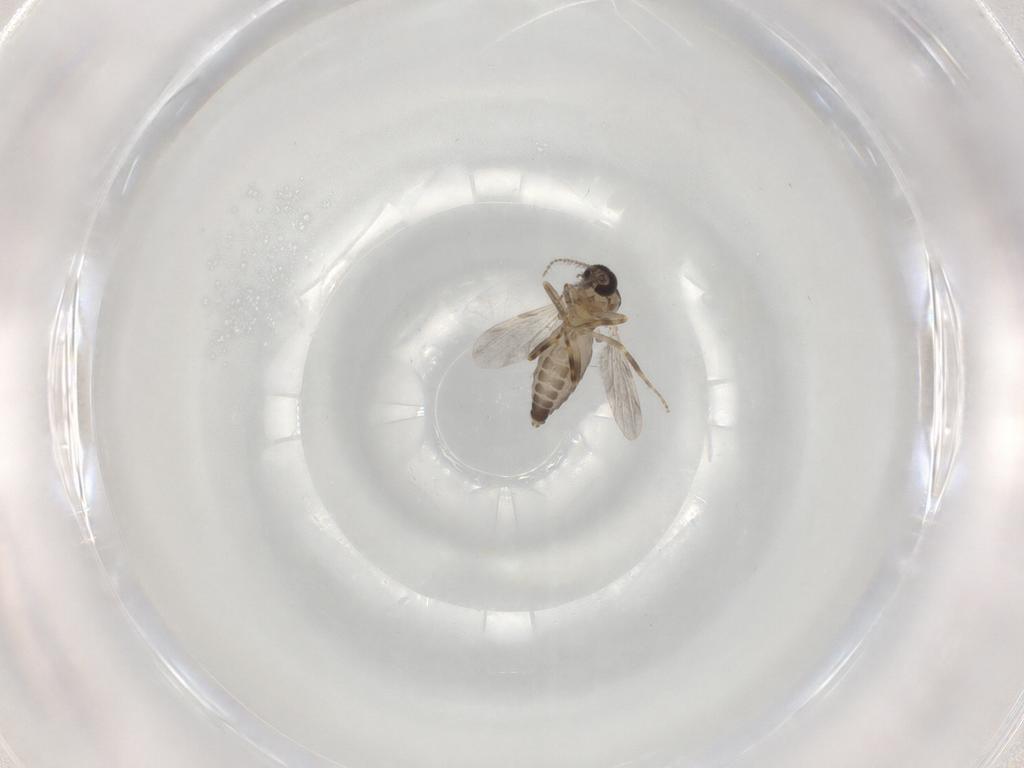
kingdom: Animalia
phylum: Arthropoda
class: Insecta
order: Diptera
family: Ceratopogonidae
